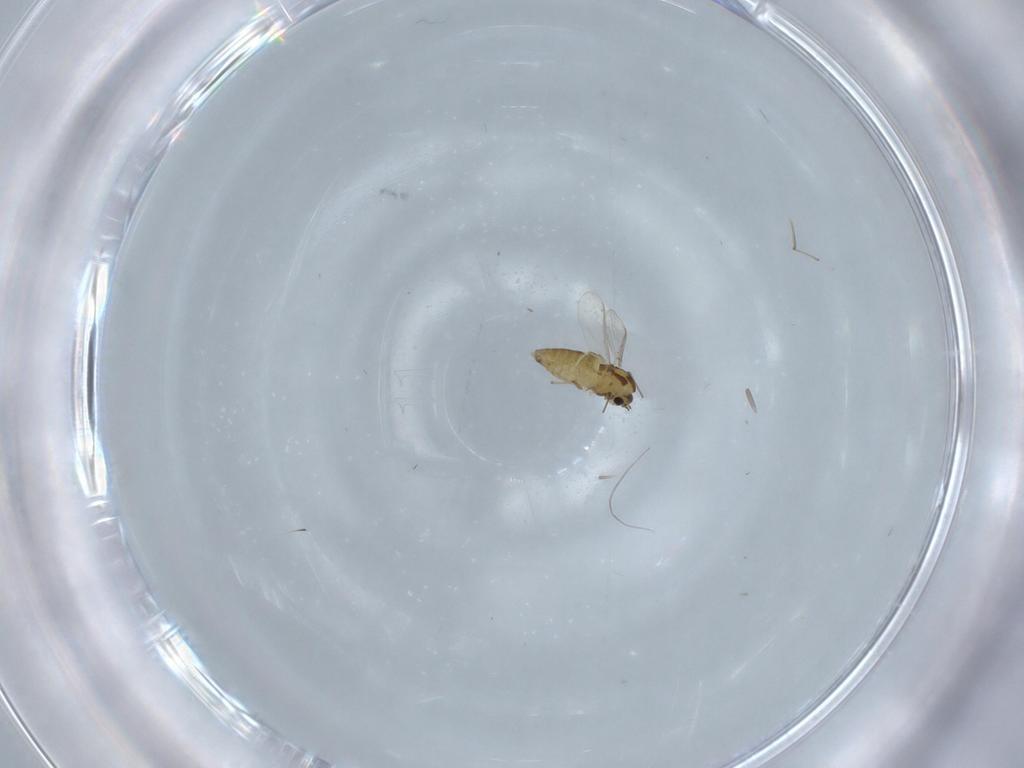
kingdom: Animalia
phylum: Arthropoda
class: Insecta
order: Diptera
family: Chironomidae
